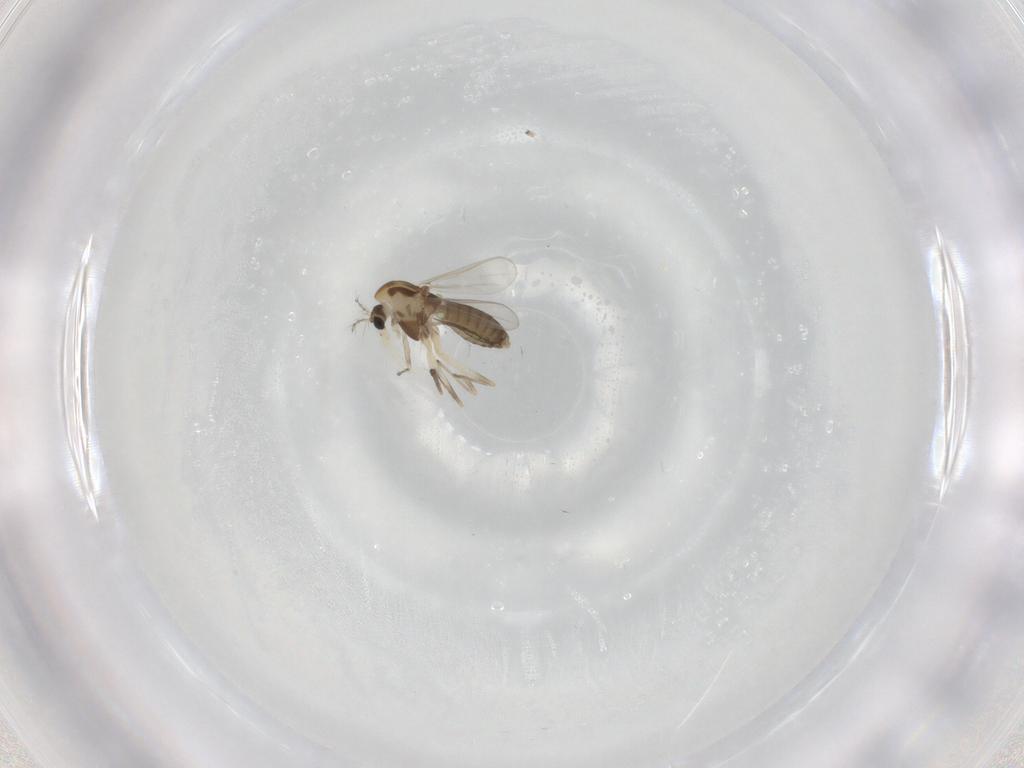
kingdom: Animalia
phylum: Arthropoda
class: Insecta
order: Diptera
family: Chironomidae
